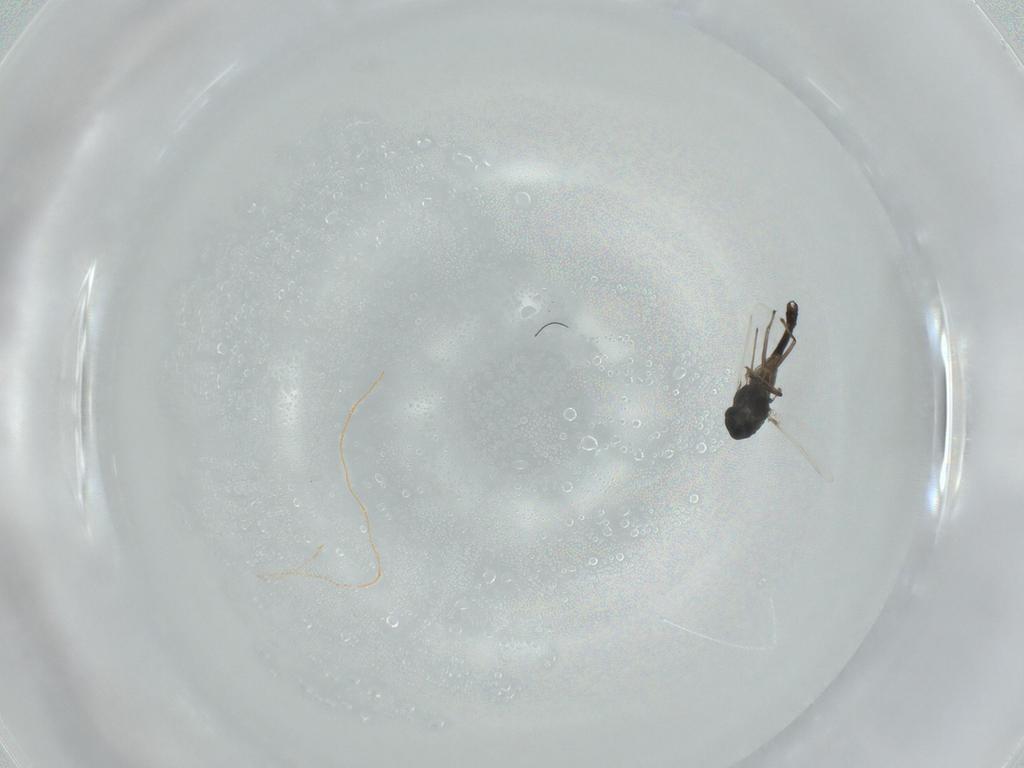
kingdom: Animalia
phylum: Arthropoda
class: Insecta
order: Diptera
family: Chironomidae
